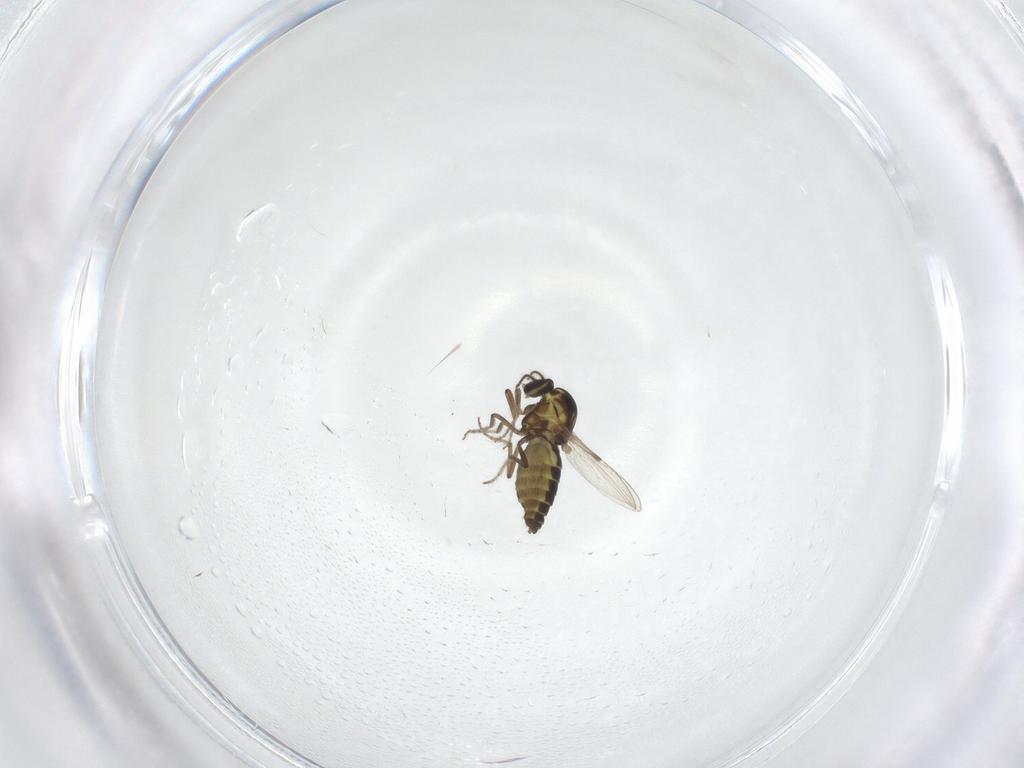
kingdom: Animalia
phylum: Arthropoda
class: Insecta
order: Diptera
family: Ceratopogonidae
